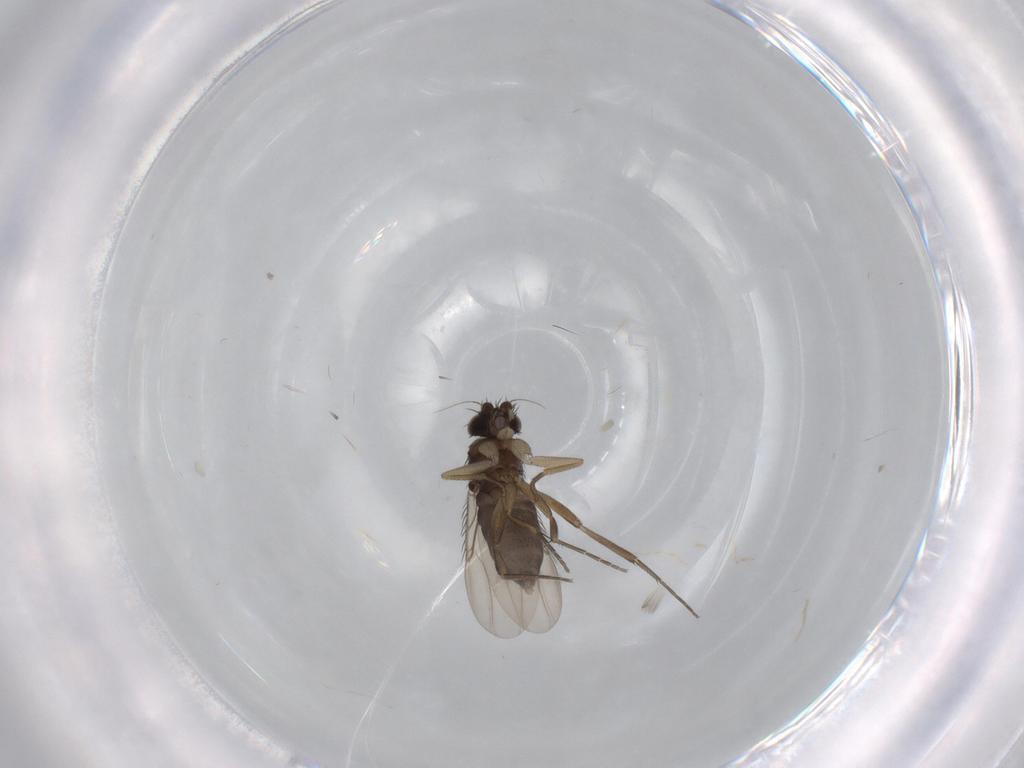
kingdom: Animalia
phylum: Arthropoda
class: Insecta
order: Diptera
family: Phoridae
